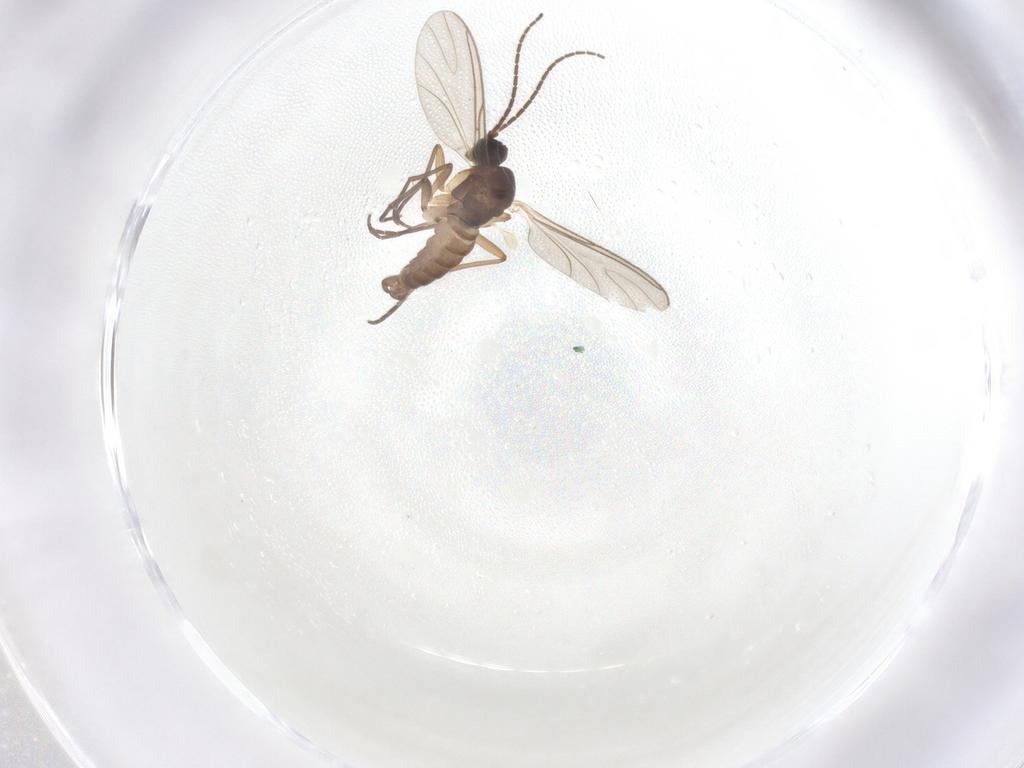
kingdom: Animalia
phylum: Arthropoda
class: Insecta
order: Diptera
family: Sciaridae
